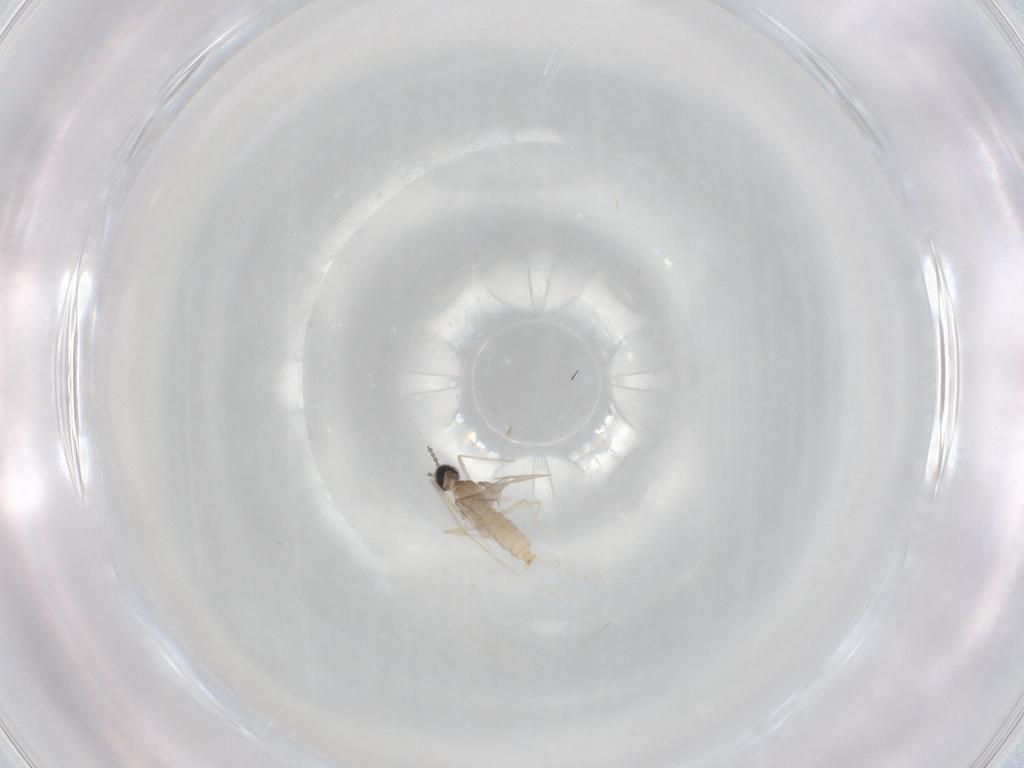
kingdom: Animalia
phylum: Arthropoda
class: Insecta
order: Diptera
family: Cecidomyiidae
